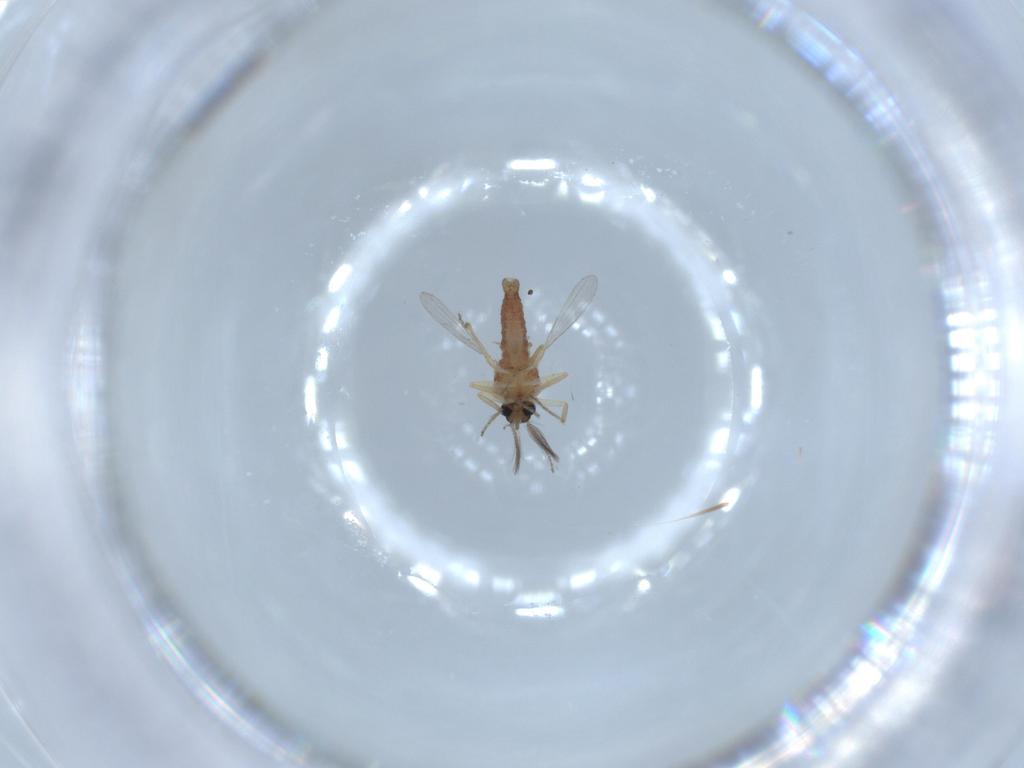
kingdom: Animalia
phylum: Arthropoda
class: Insecta
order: Diptera
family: Ceratopogonidae
